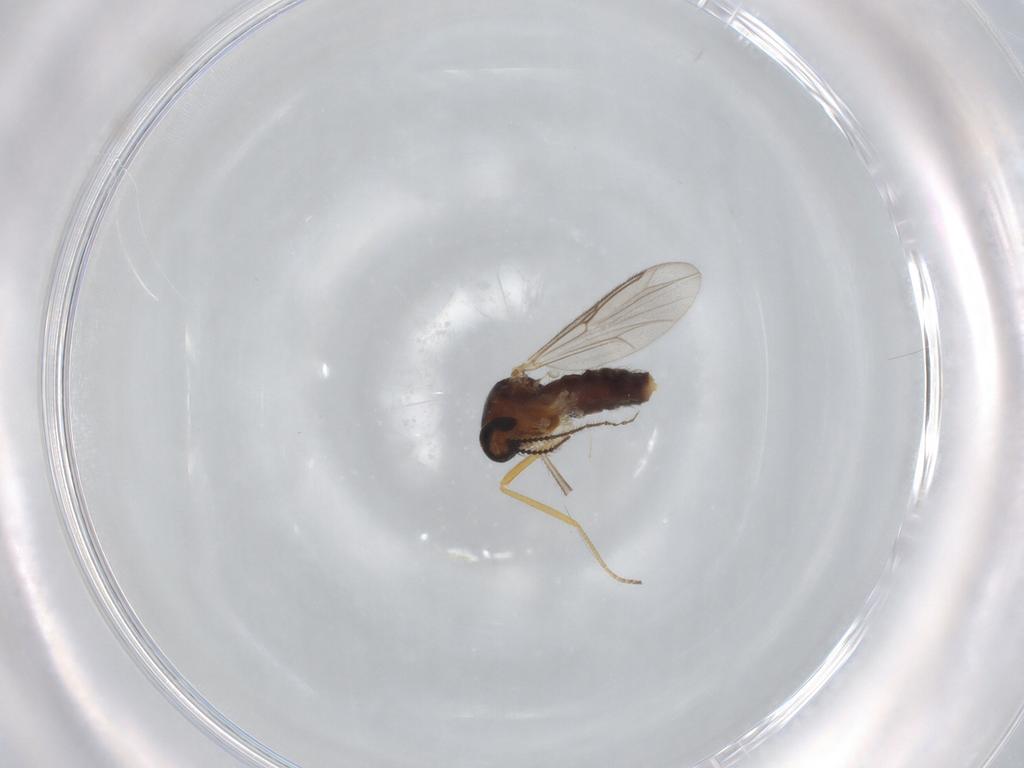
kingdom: Animalia
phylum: Arthropoda
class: Insecta
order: Diptera
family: Ceratopogonidae
